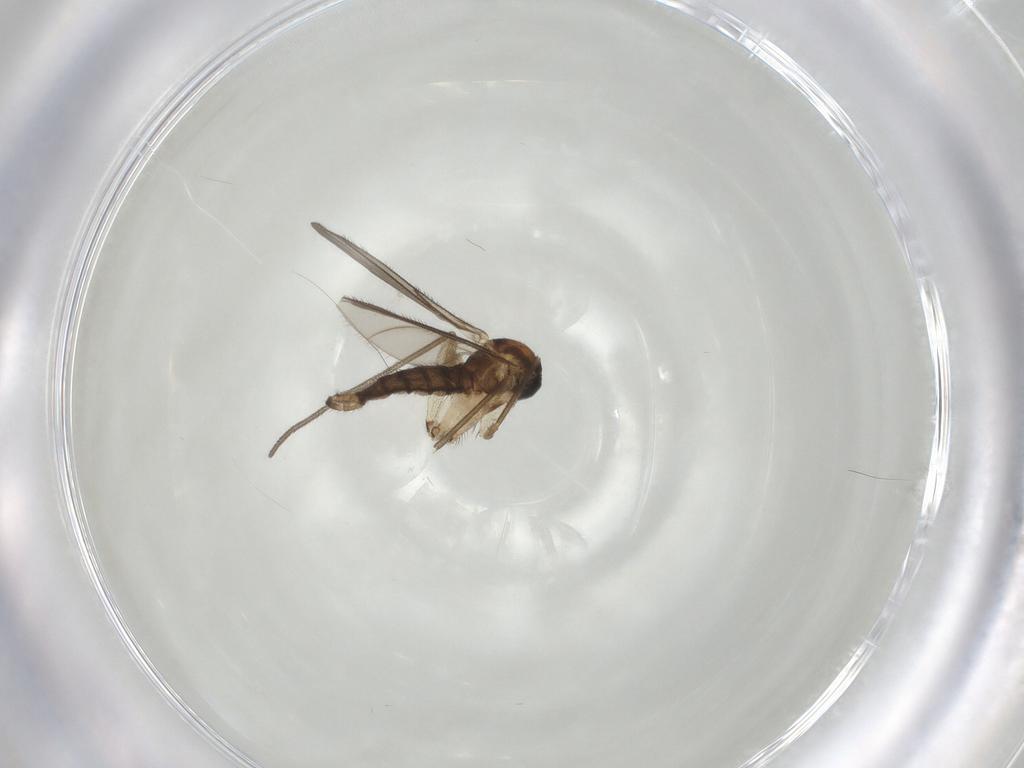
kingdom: Animalia
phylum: Arthropoda
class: Insecta
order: Diptera
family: Sciaridae
